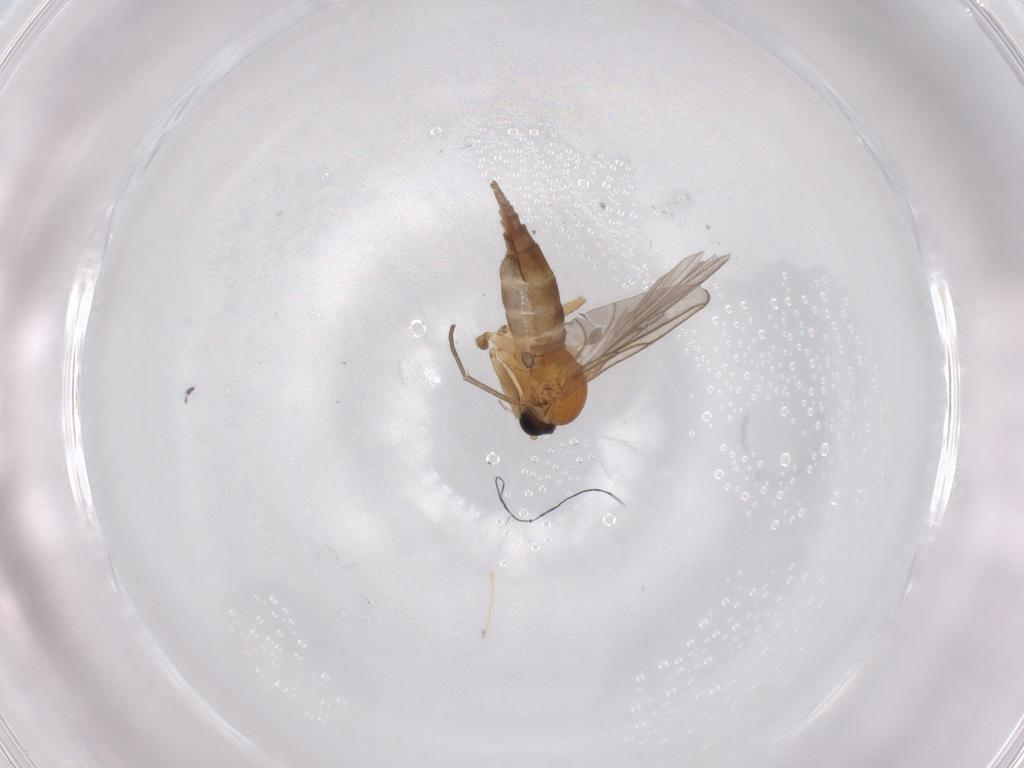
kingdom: Animalia
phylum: Arthropoda
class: Insecta
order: Diptera
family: Sciaridae
